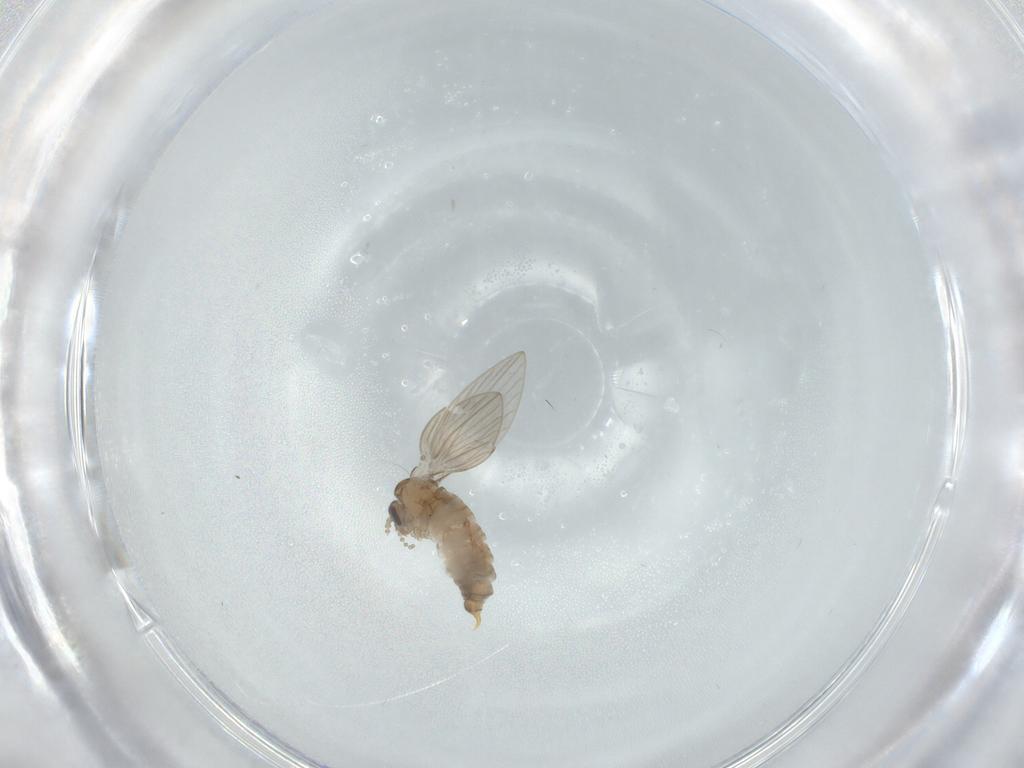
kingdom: Animalia
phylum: Arthropoda
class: Insecta
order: Diptera
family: Psychodidae
